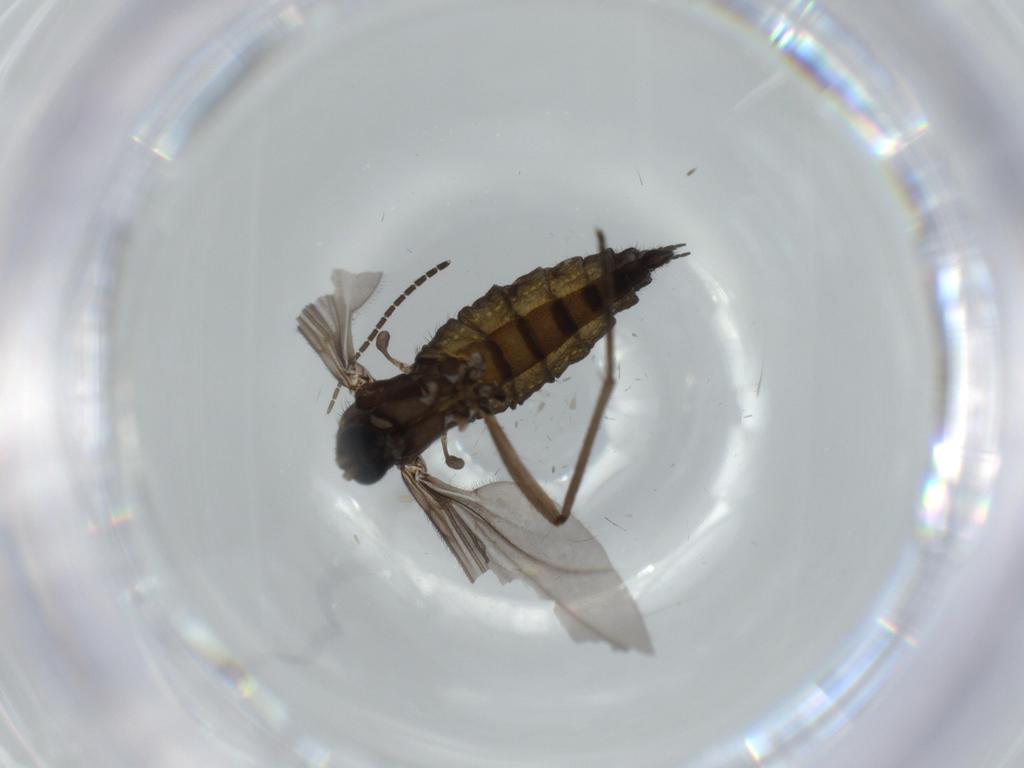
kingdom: Animalia
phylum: Arthropoda
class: Insecta
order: Diptera
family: Sciaridae
